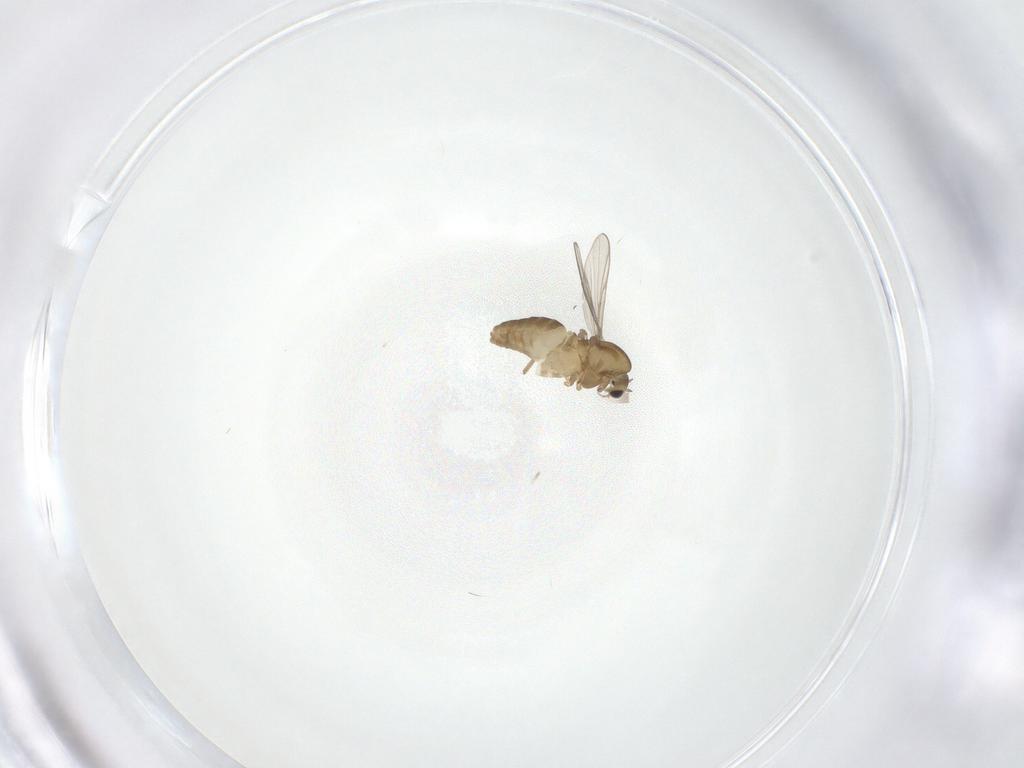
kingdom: Animalia
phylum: Arthropoda
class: Insecta
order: Diptera
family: Chironomidae
